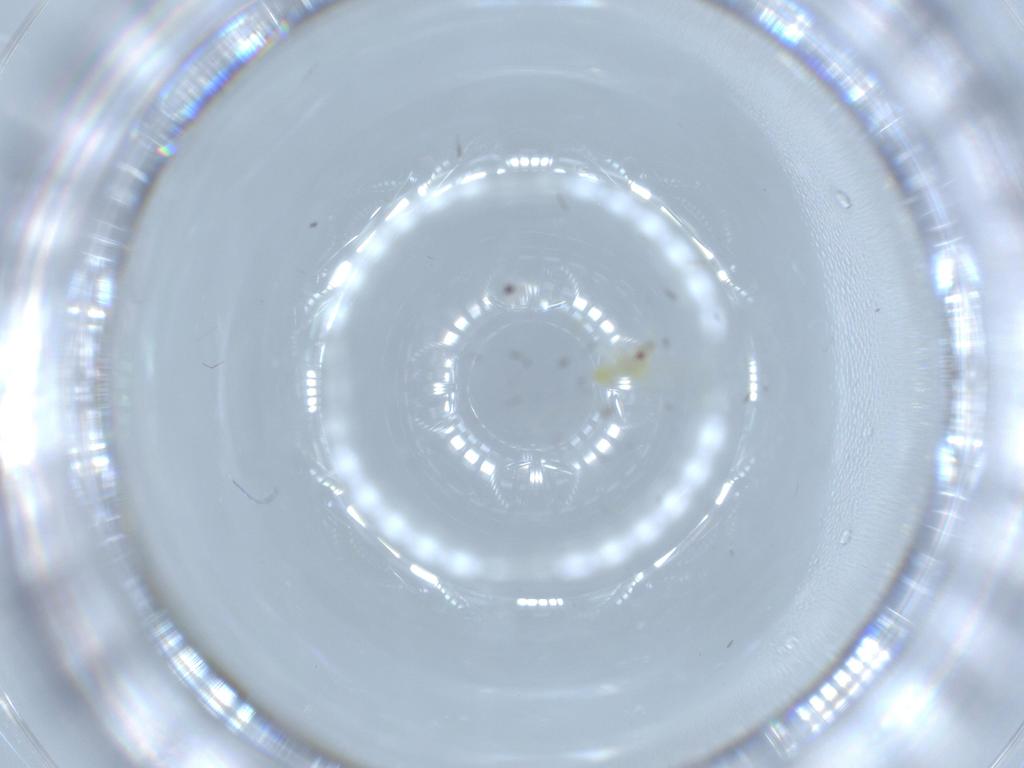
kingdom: Animalia
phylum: Arthropoda
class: Insecta
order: Hemiptera
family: Aleyrodidae
